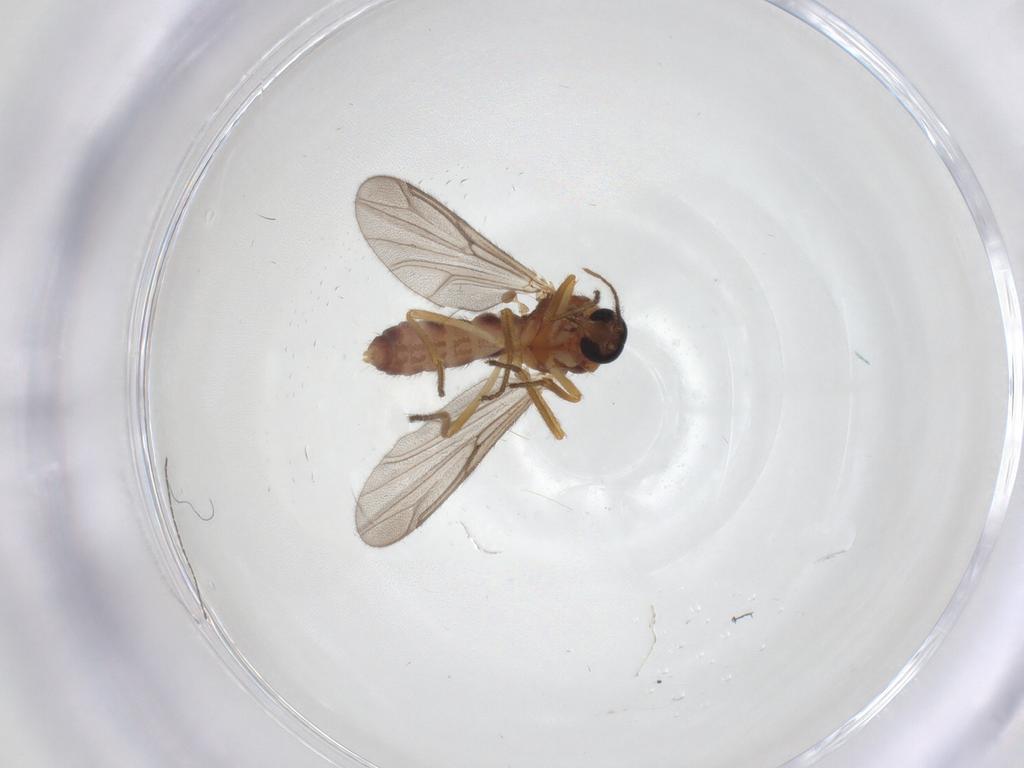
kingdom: Animalia
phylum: Arthropoda
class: Insecta
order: Diptera
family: Ceratopogonidae
